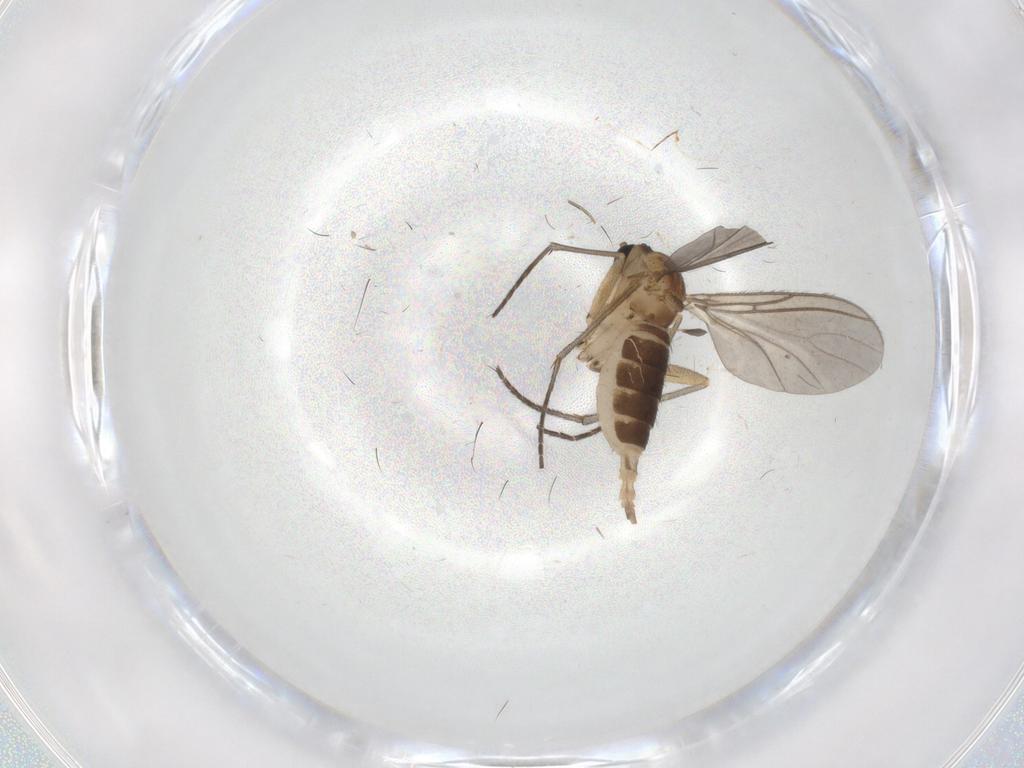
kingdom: Animalia
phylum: Arthropoda
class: Insecta
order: Diptera
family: Sciaridae
